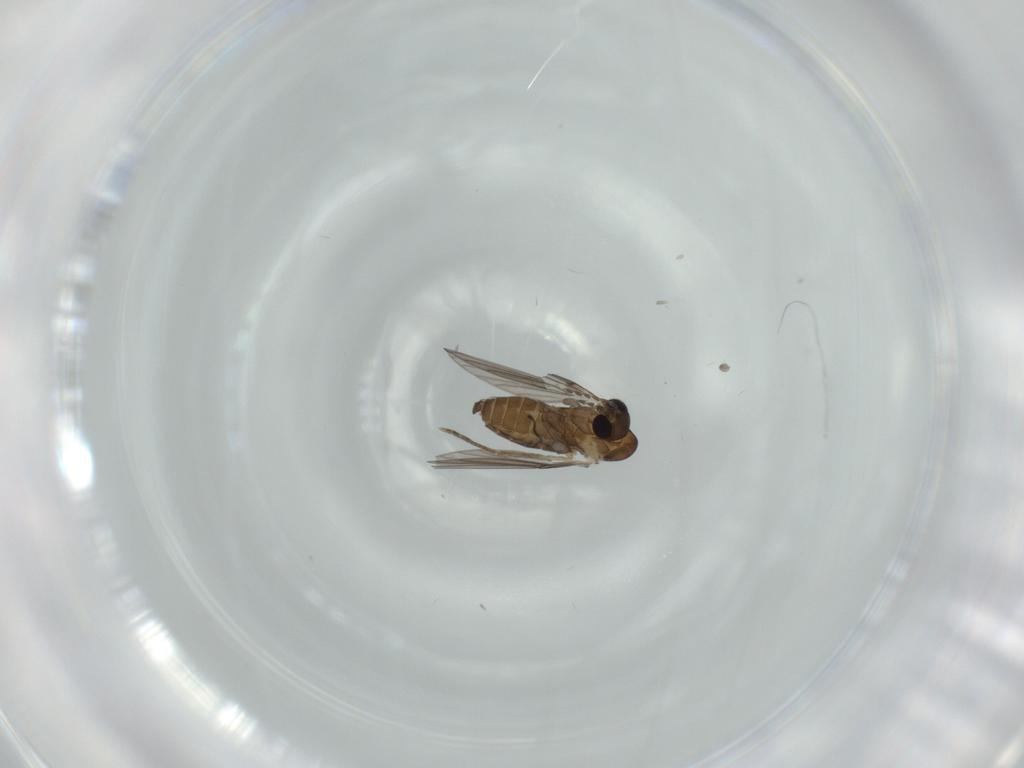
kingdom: Animalia
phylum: Arthropoda
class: Insecta
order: Diptera
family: Psychodidae
